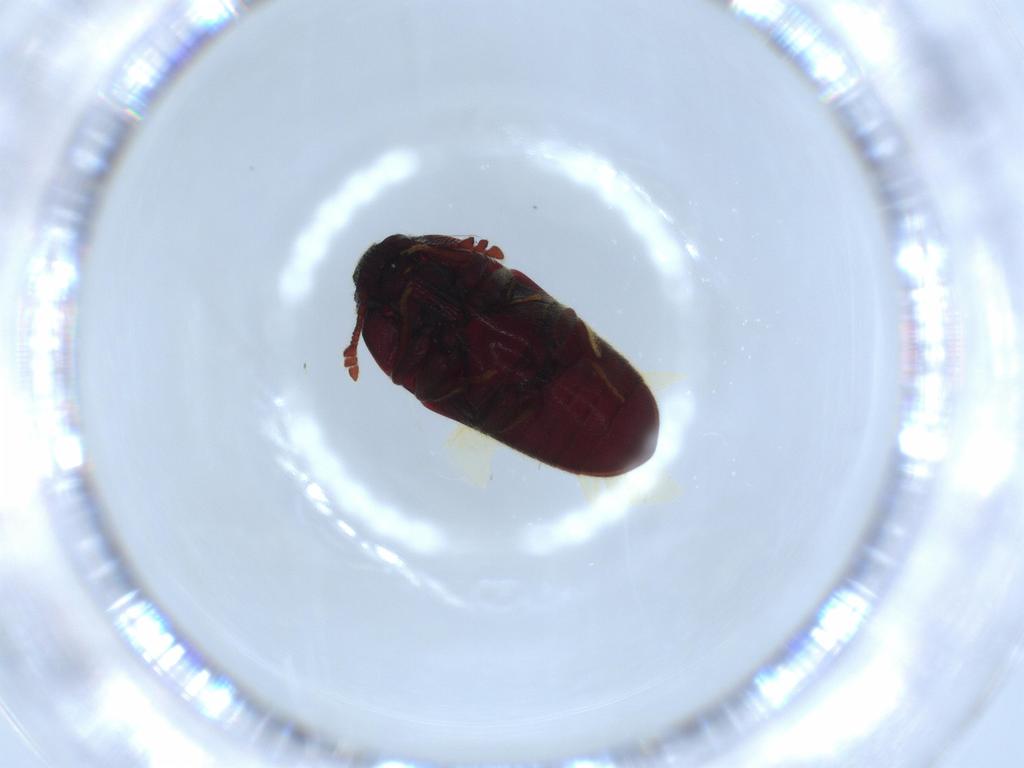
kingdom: Animalia
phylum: Arthropoda
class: Insecta
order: Coleoptera
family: Throscidae
